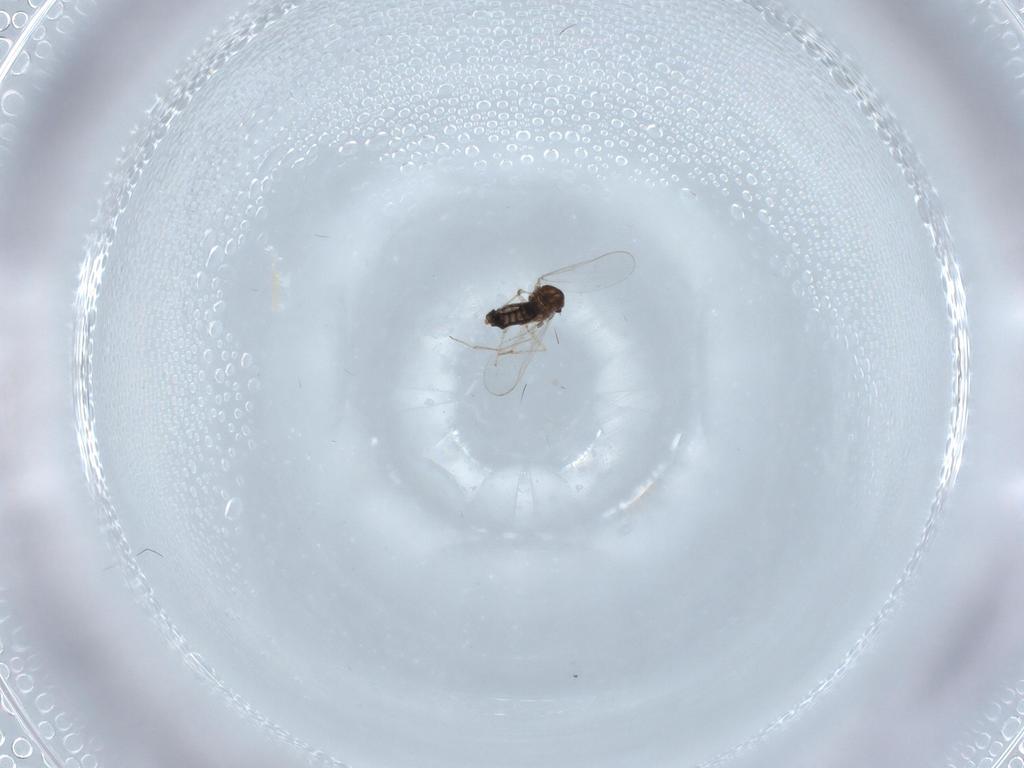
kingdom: Animalia
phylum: Arthropoda
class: Insecta
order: Diptera
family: Chironomidae
